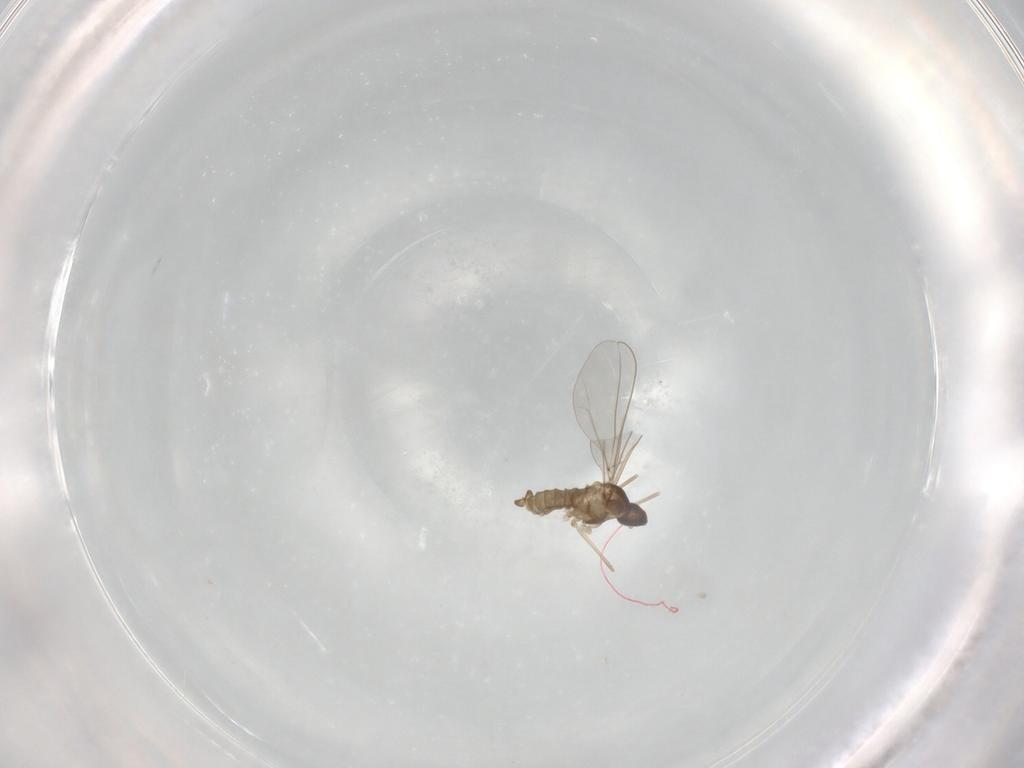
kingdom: Animalia
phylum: Arthropoda
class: Insecta
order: Diptera
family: Cecidomyiidae
